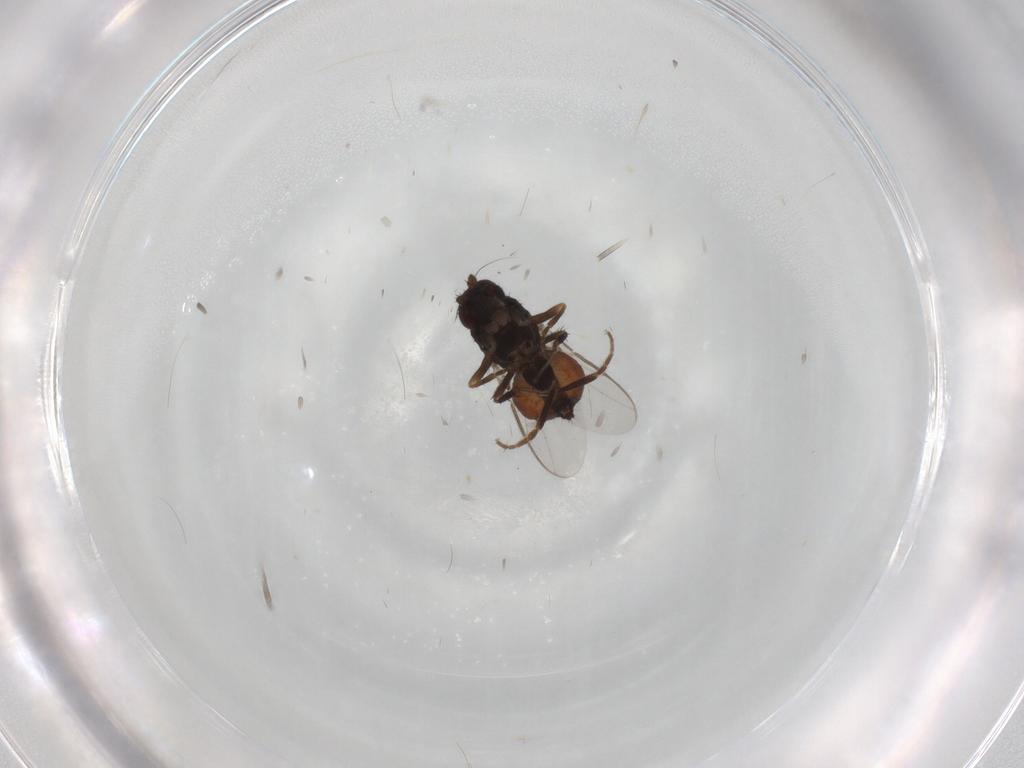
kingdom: Animalia
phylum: Arthropoda
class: Insecta
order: Diptera
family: Sphaeroceridae
